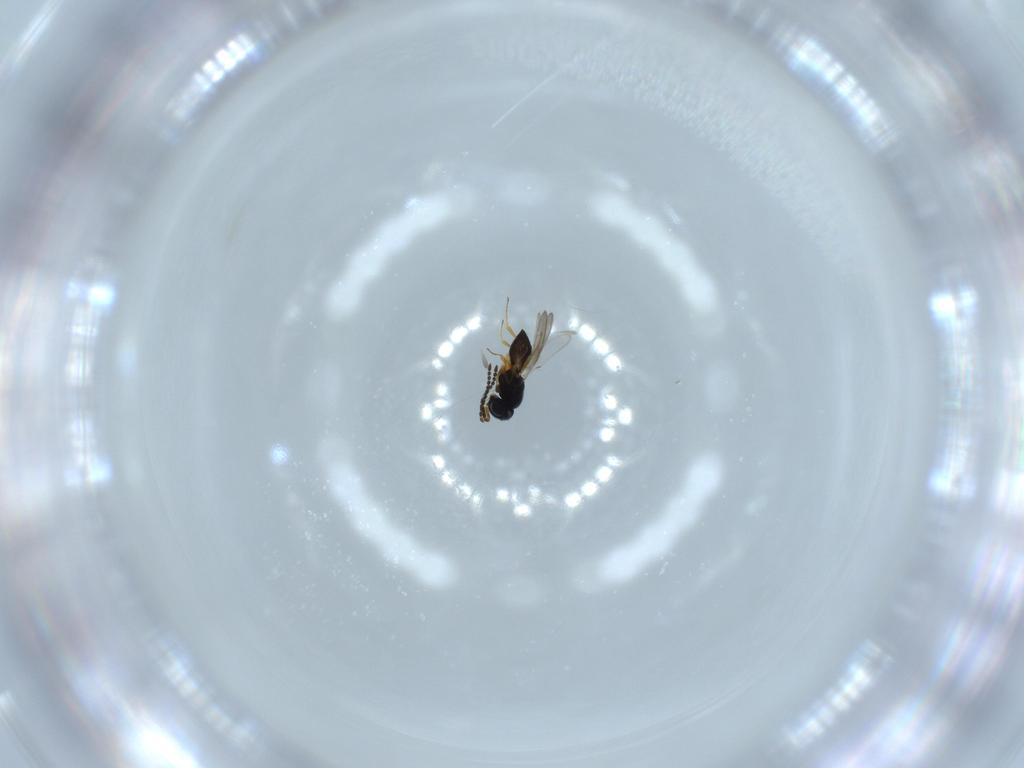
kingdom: Animalia
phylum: Arthropoda
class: Insecta
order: Hymenoptera
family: Scelionidae
